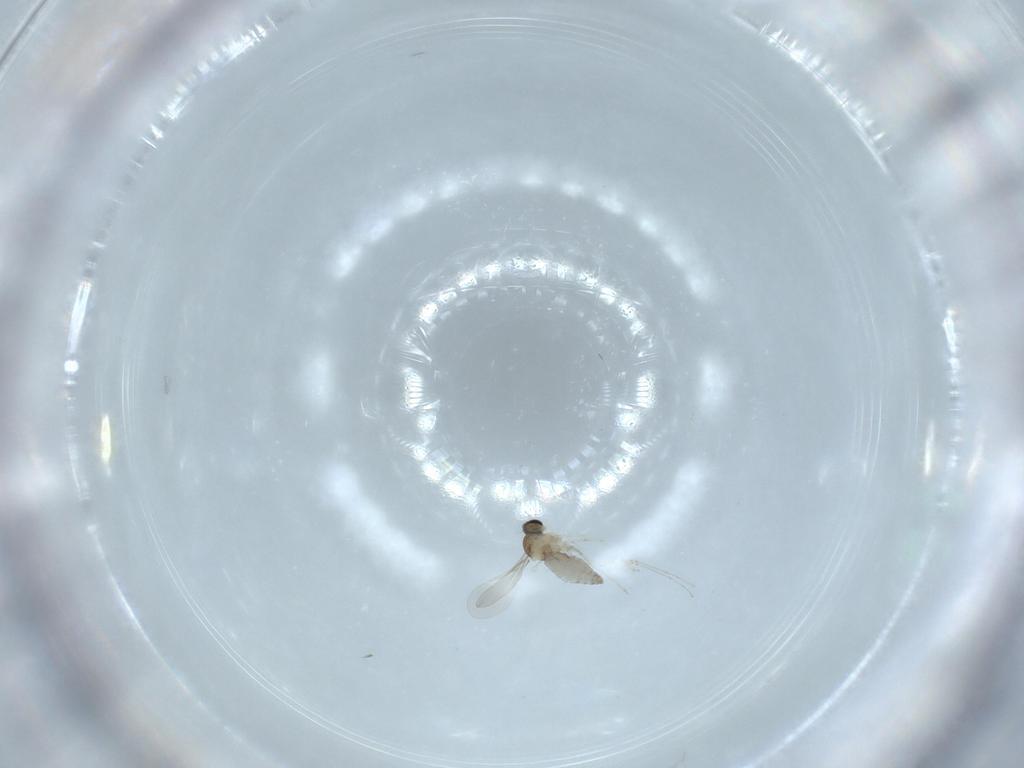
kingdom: Animalia
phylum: Arthropoda
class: Insecta
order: Diptera
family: Cecidomyiidae
